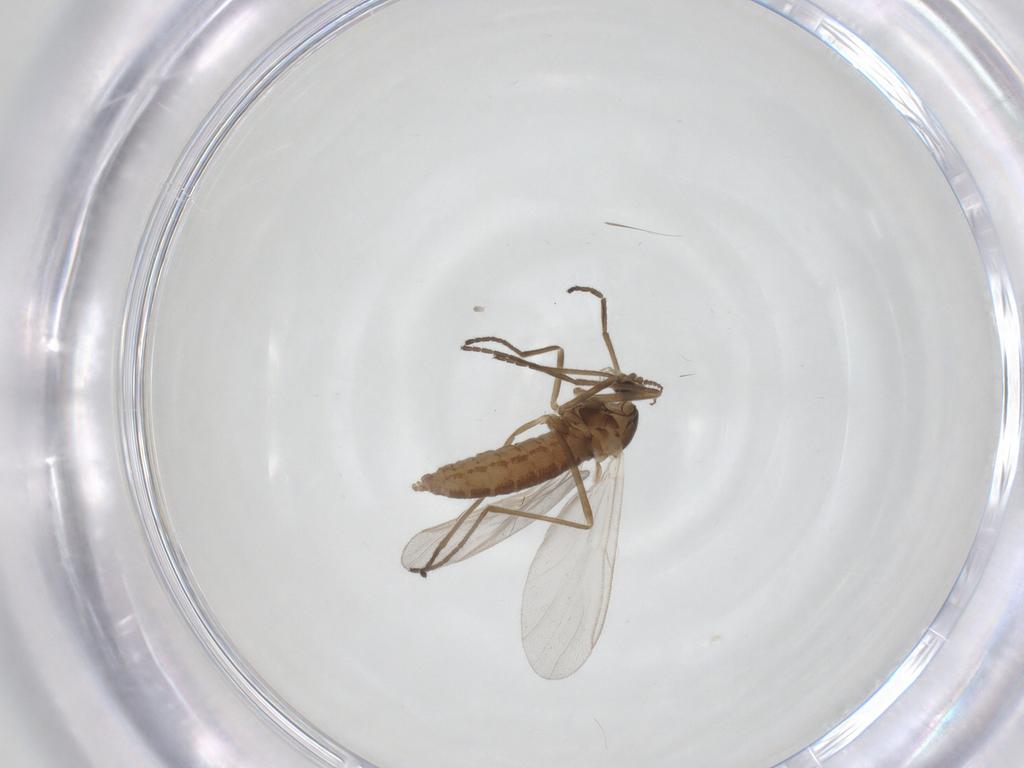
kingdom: Animalia
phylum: Arthropoda
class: Insecta
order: Diptera
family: Cecidomyiidae
